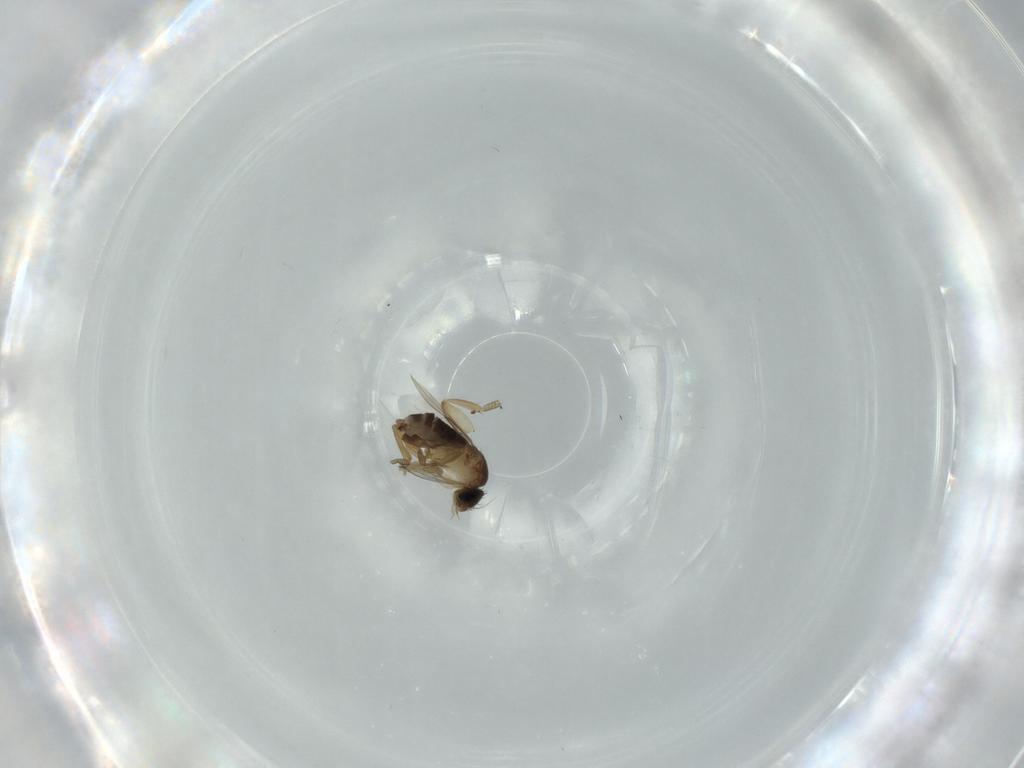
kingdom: Animalia
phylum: Arthropoda
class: Insecta
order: Diptera
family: Phoridae
